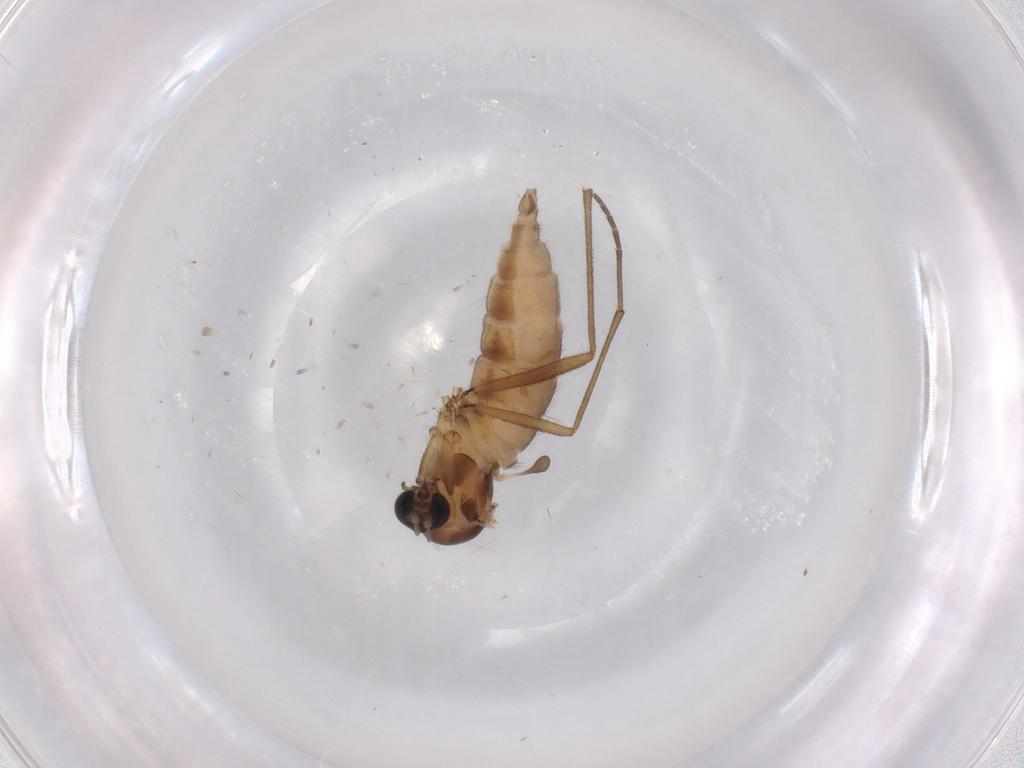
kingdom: Animalia
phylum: Arthropoda
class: Insecta
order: Diptera
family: Sciaridae
